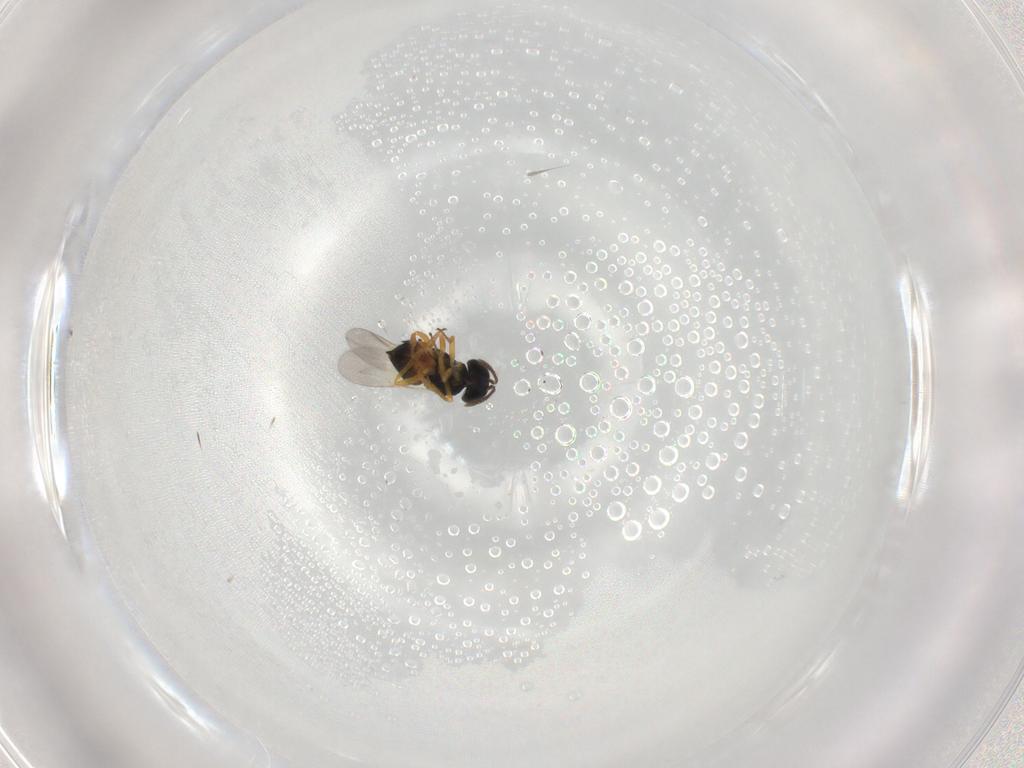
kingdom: Animalia
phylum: Arthropoda
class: Insecta
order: Hymenoptera
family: Encyrtidae
